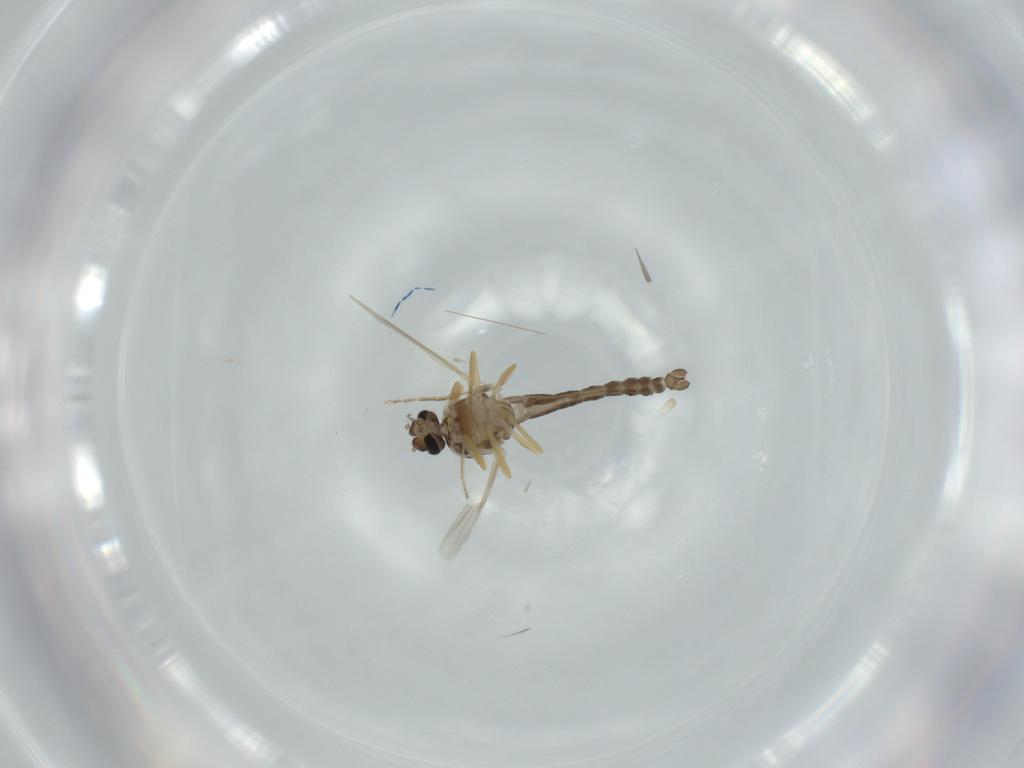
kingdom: Animalia
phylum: Arthropoda
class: Insecta
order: Diptera
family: Ceratopogonidae
